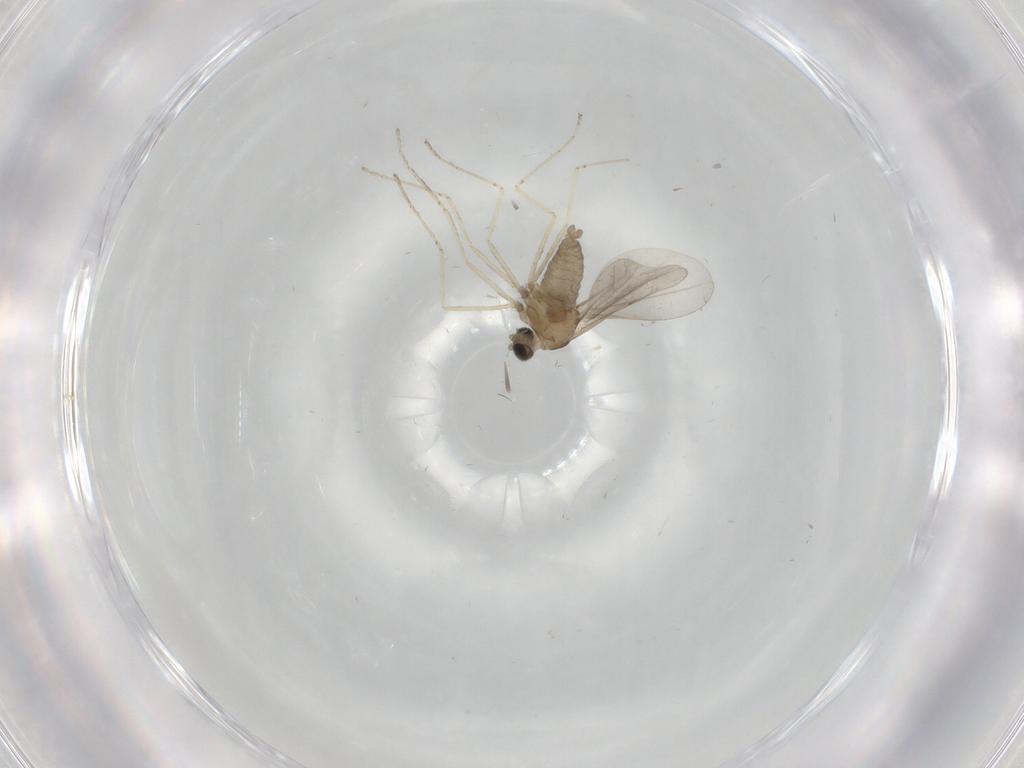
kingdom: Animalia
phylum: Arthropoda
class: Insecta
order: Diptera
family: Cecidomyiidae
